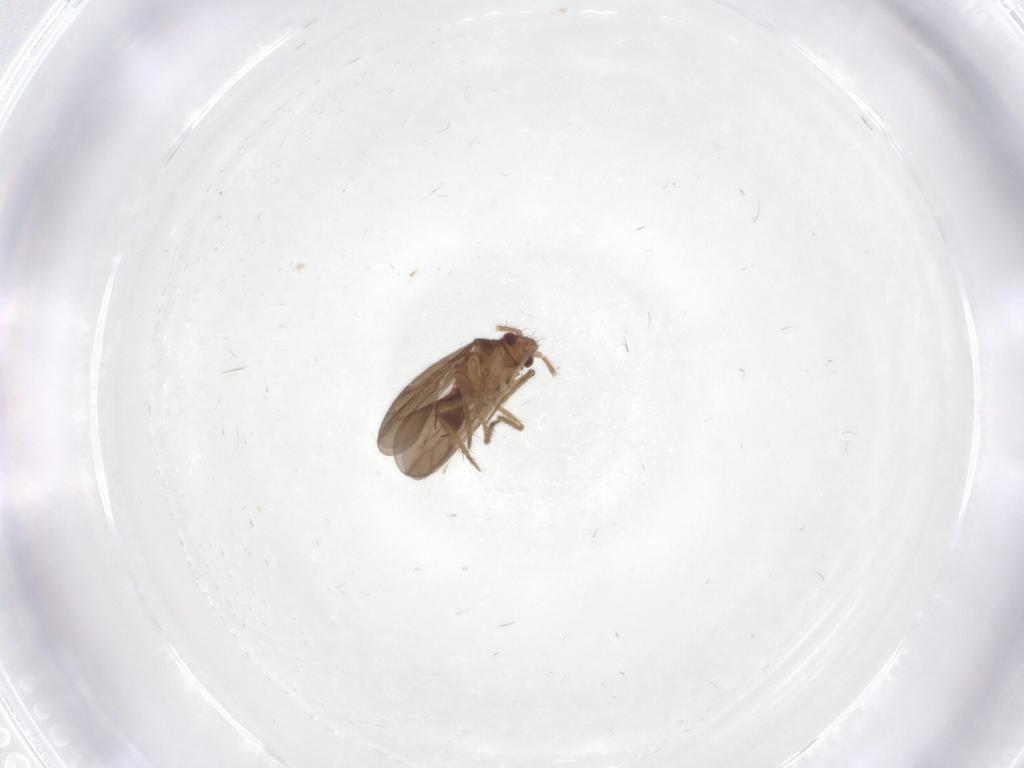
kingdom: Animalia
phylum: Arthropoda
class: Insecta
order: Hemiptera
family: Ceratocombidae
